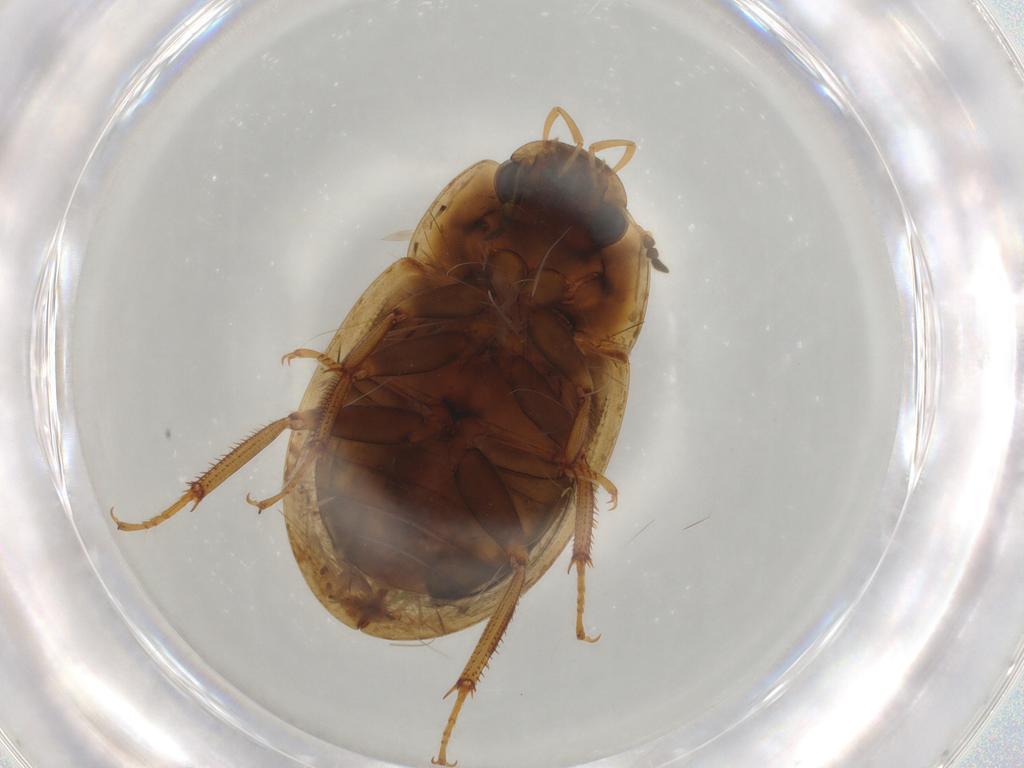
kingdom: Animalia
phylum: Arthropoda
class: Insecta
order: Coleoptera
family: Hydrophilidae
